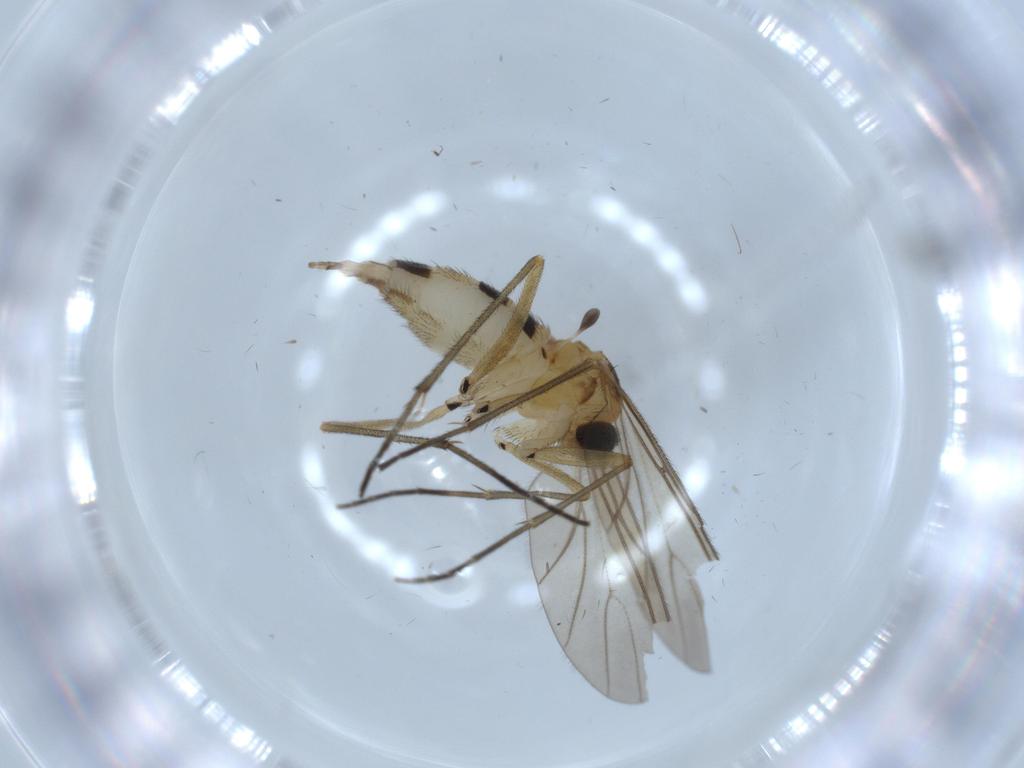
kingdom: Animalia
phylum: Arthropoda
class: Insecta
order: Diptera
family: Sciaridae
